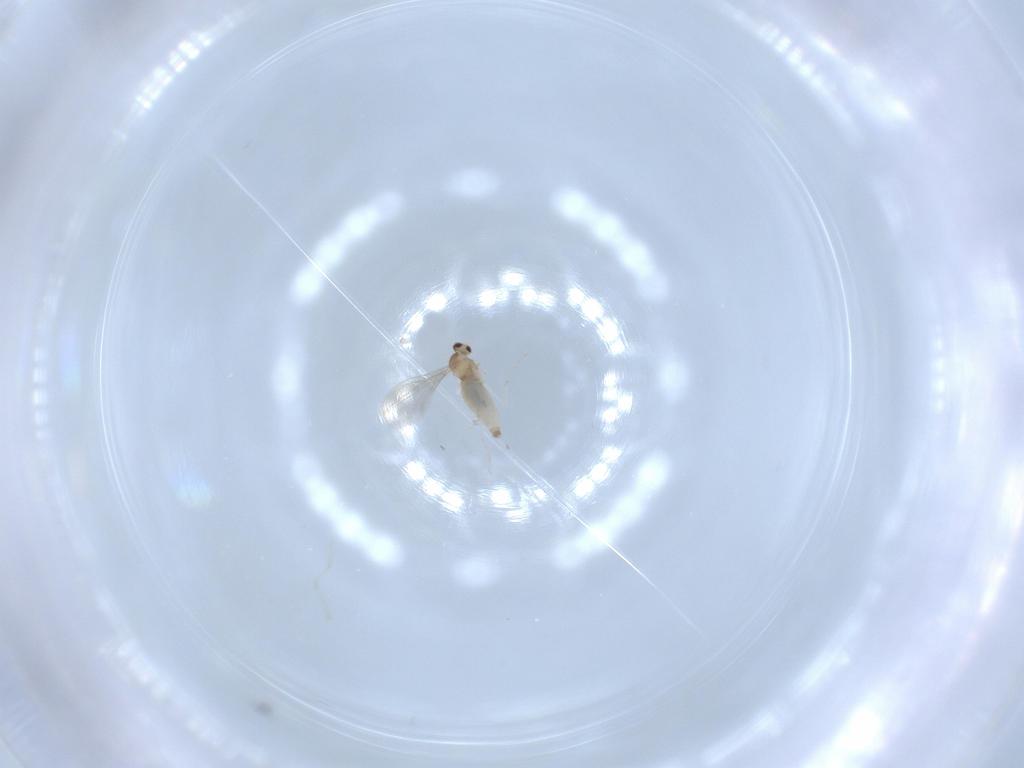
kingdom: Animalia
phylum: Arthropoda
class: Insecta
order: Diptera
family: Cecidomyiidae
